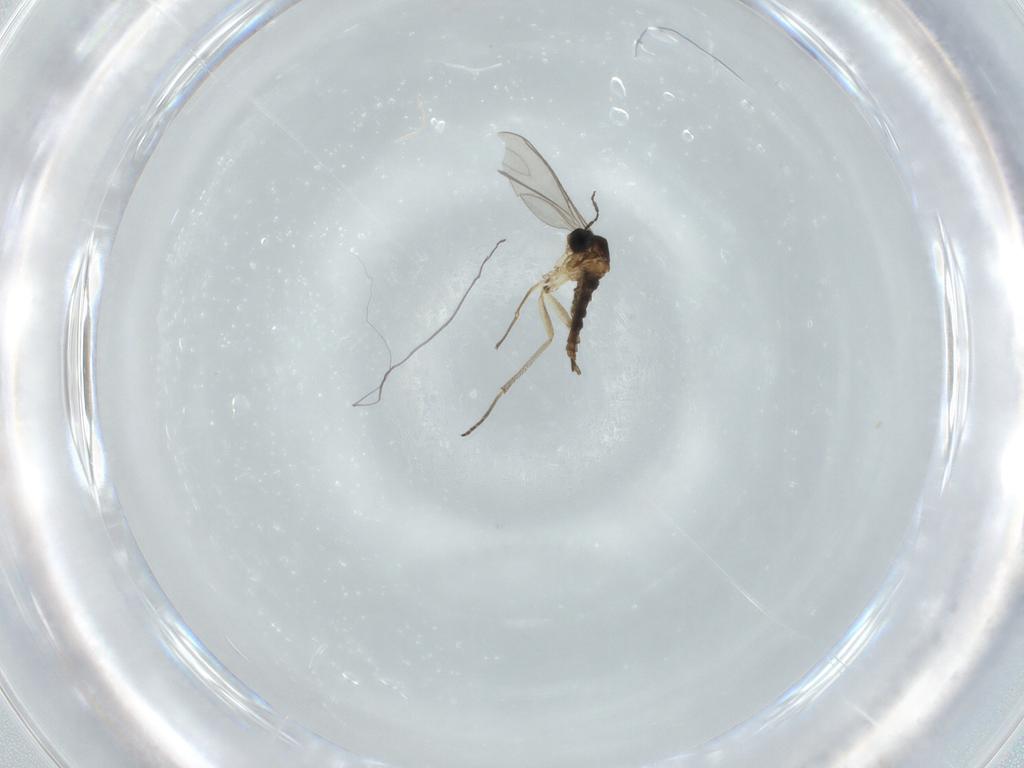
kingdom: Animalia
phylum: Arthropoda
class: Insecta
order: Diptera
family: Sciaridae
